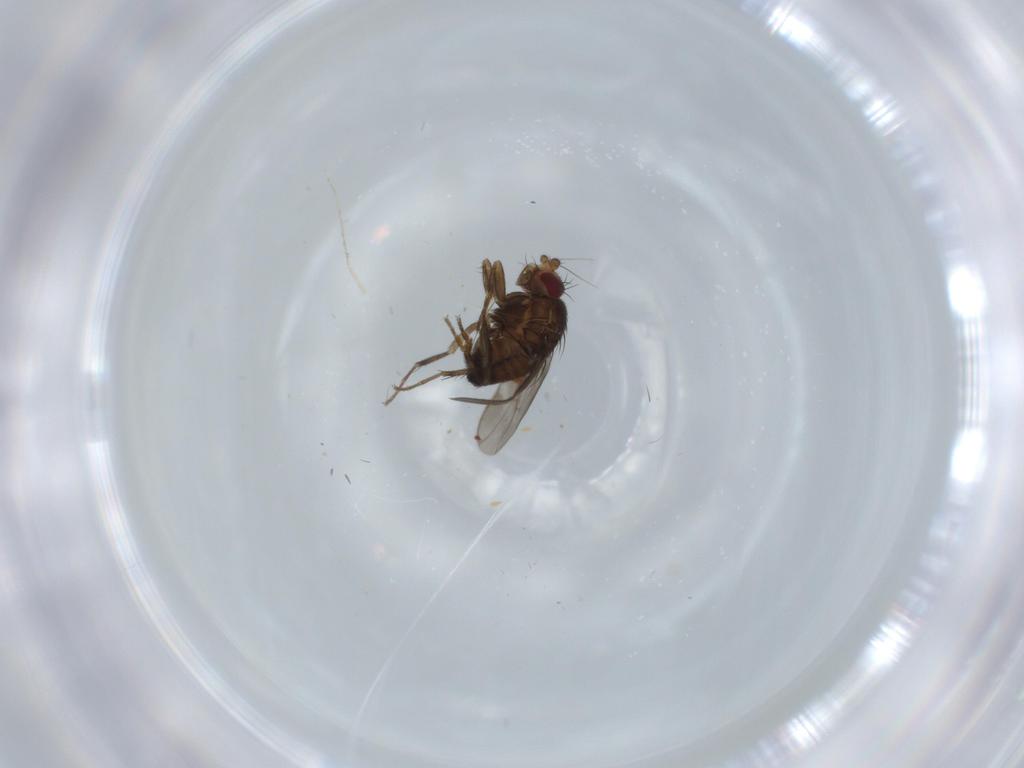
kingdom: Animalia
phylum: Arthropoda
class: Insecta
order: Diptera
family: Sphaeroceridae
